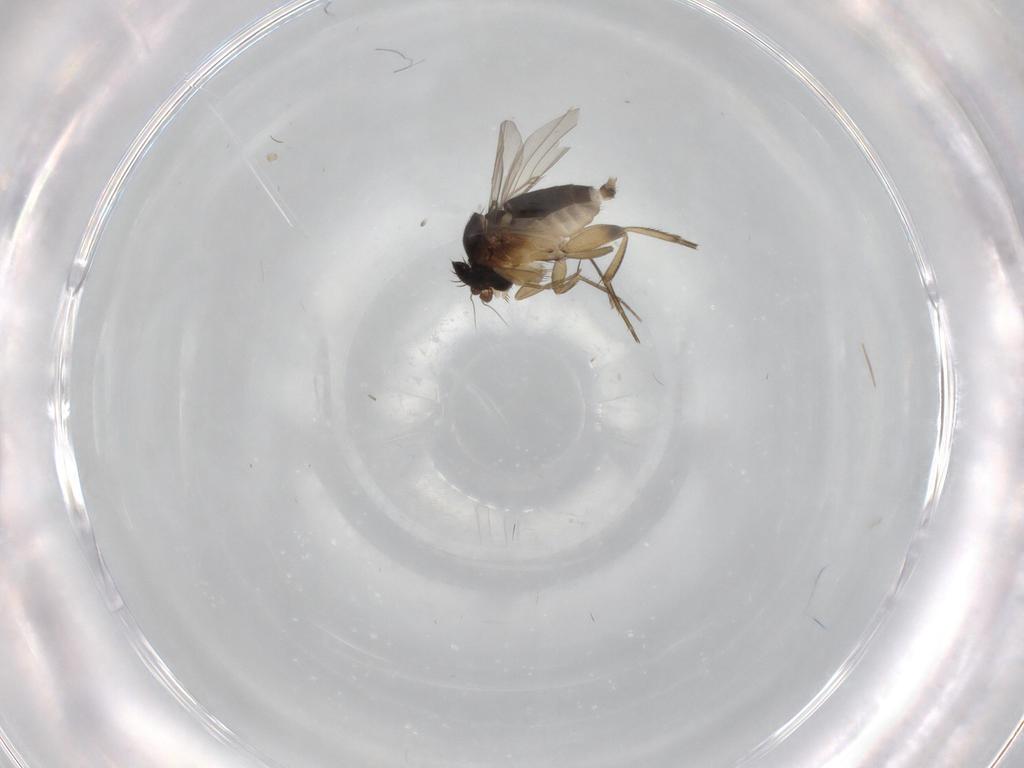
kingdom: Animalia
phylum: Arthropoda
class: Insecta
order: Diptera
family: Phoridae
